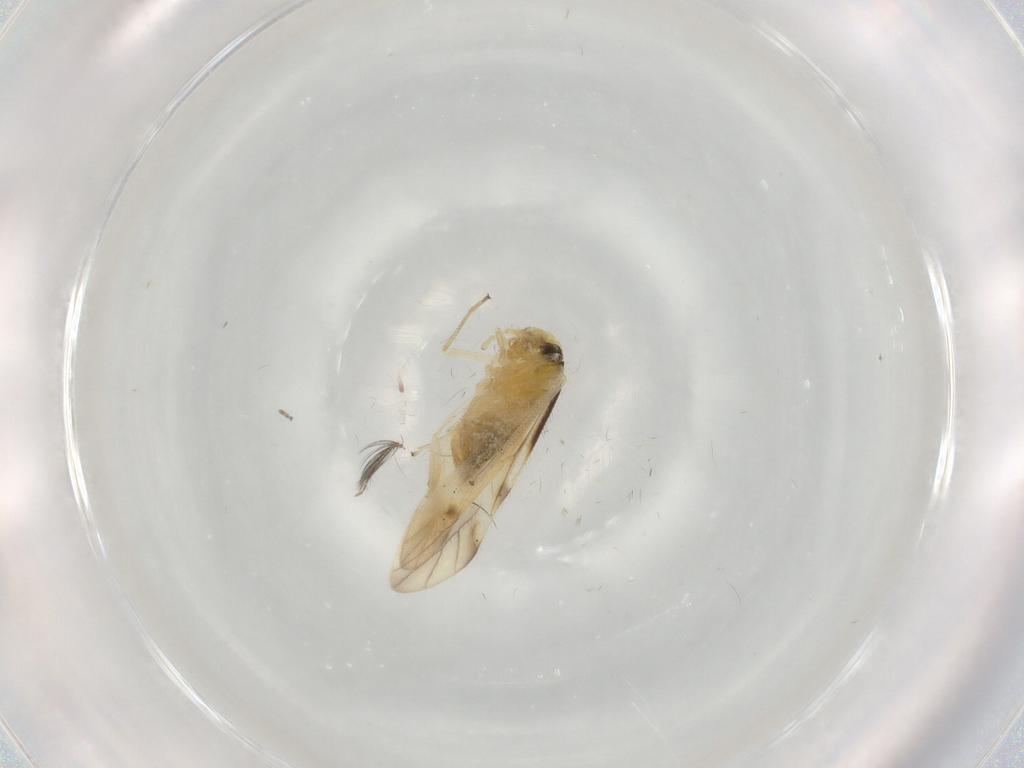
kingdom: Animalia
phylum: Arthropoda
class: Insecta
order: Psocodea
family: Caeciliusidae
